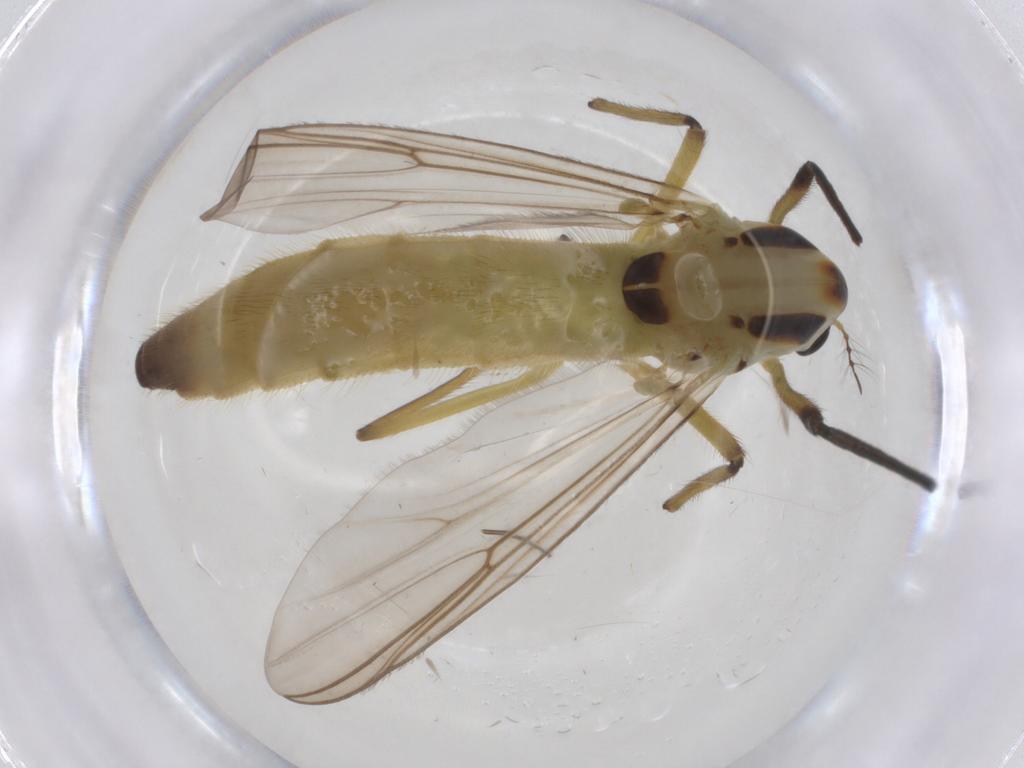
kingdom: Animalia
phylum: Arthropoda
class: Insecta
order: Diptera
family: Chironomidae
